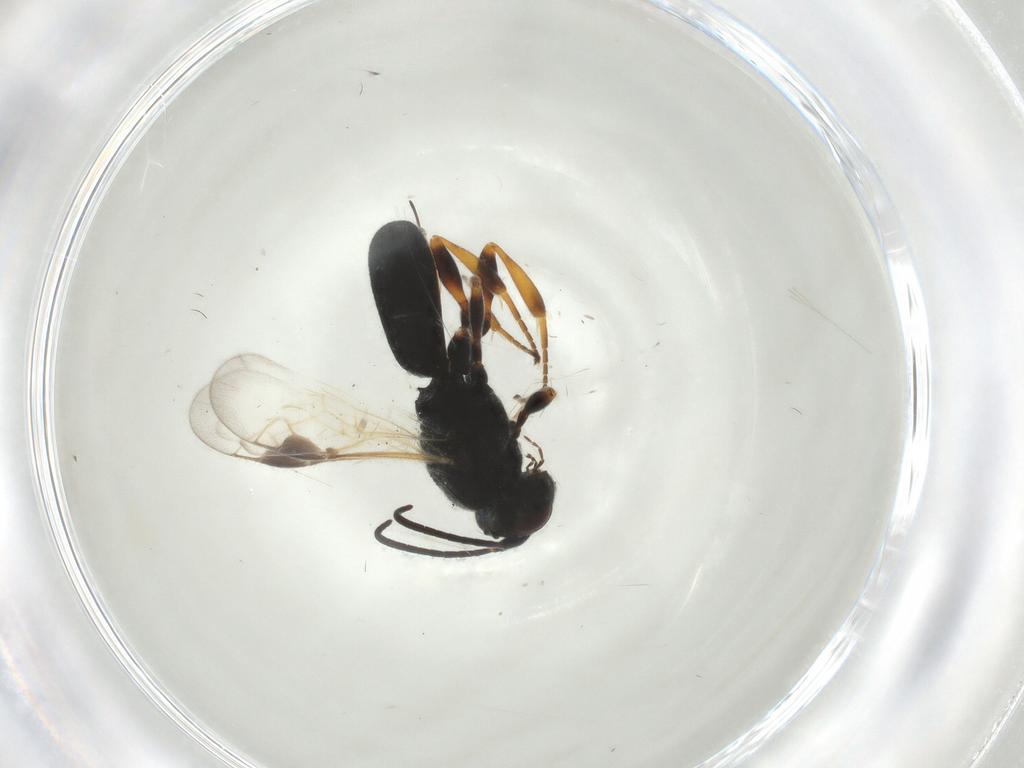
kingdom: Animalia
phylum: Arthropoda
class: Insecta
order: Hymenoptera
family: Braconidae
